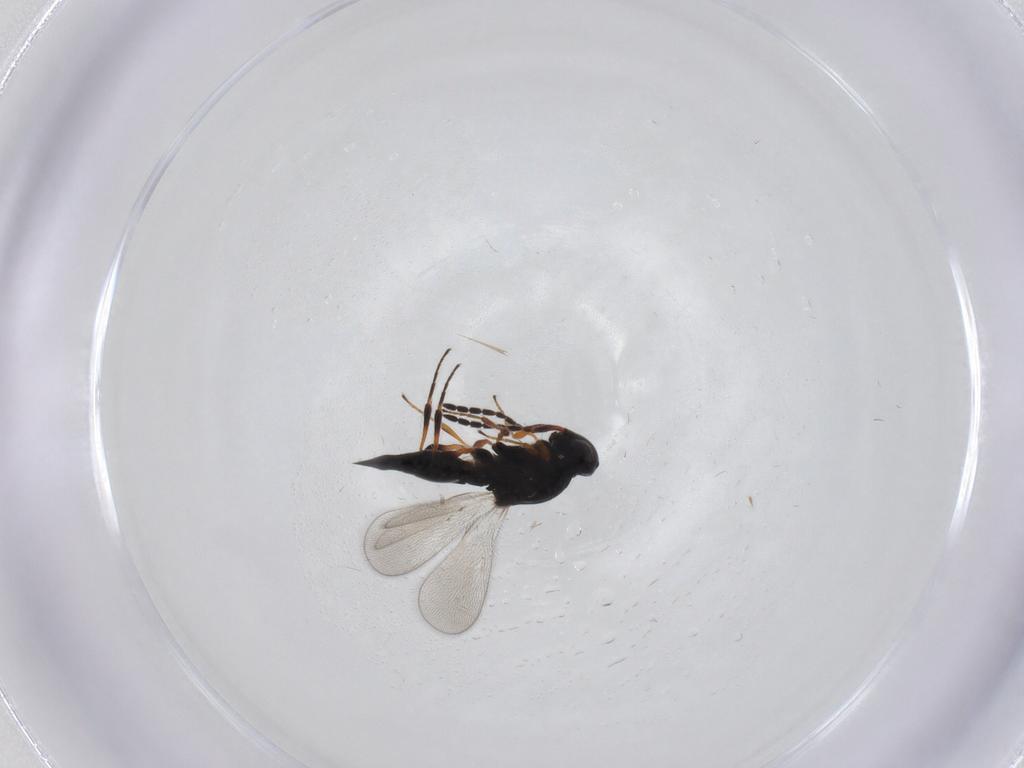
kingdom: Animalia
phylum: Arthropoda
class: Insecta
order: Hymenoptera
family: Platygastridae
